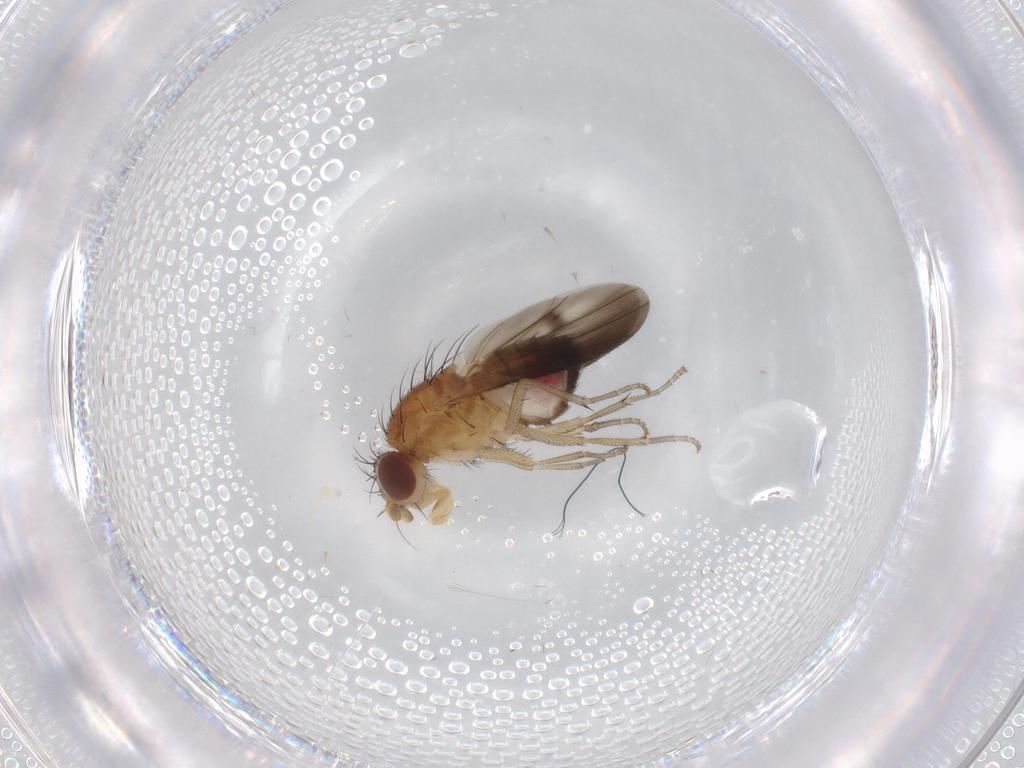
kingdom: Animalia
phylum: Arthropoda
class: Insecta
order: Diptera
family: Heleomyzidae
